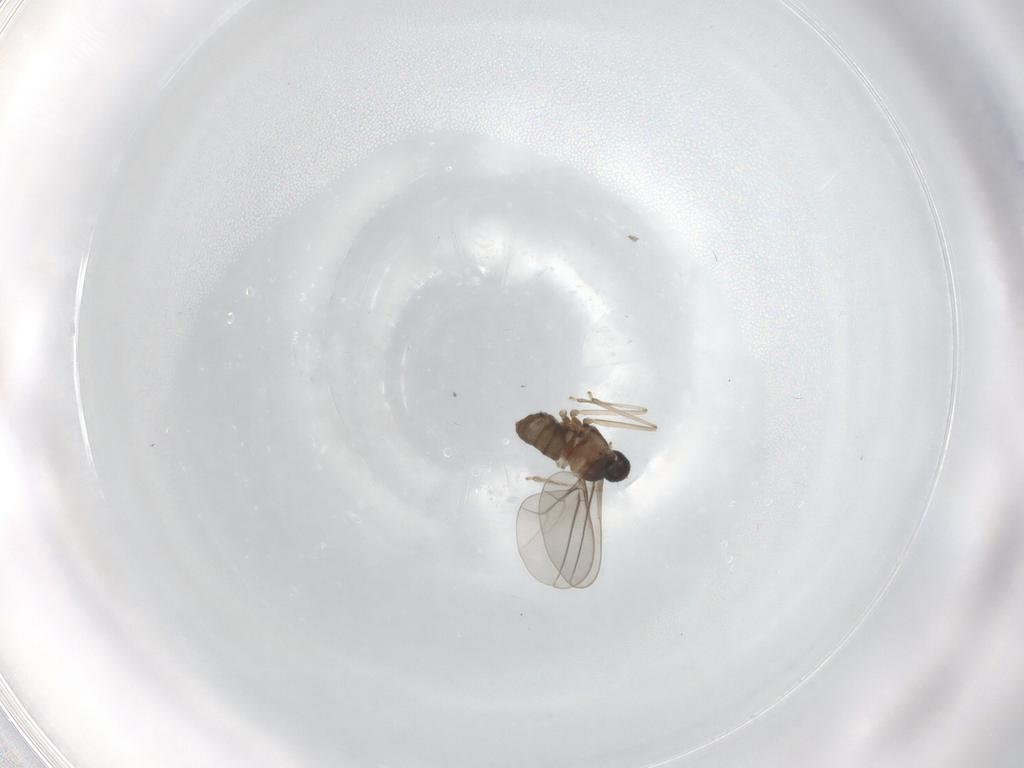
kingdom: Animalia
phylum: Arthropoda
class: Insecta
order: Diptera
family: Cecidomyiidae
